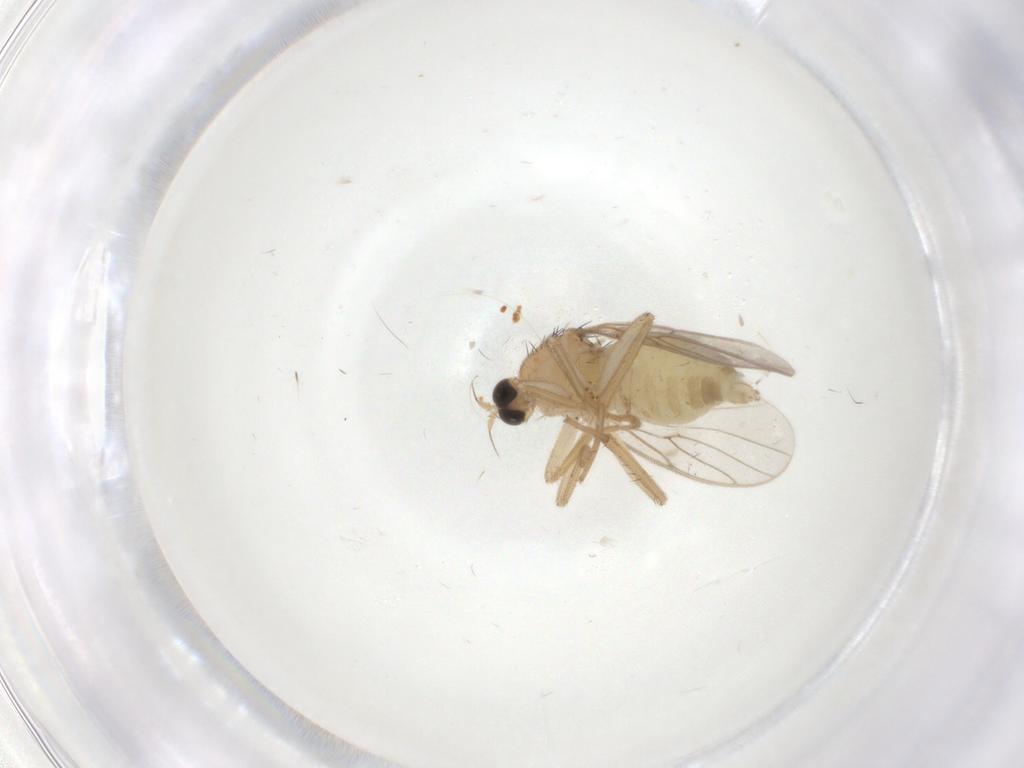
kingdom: Animalia
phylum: Arthropoda
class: Insecta
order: Diptera
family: Hybotidae
